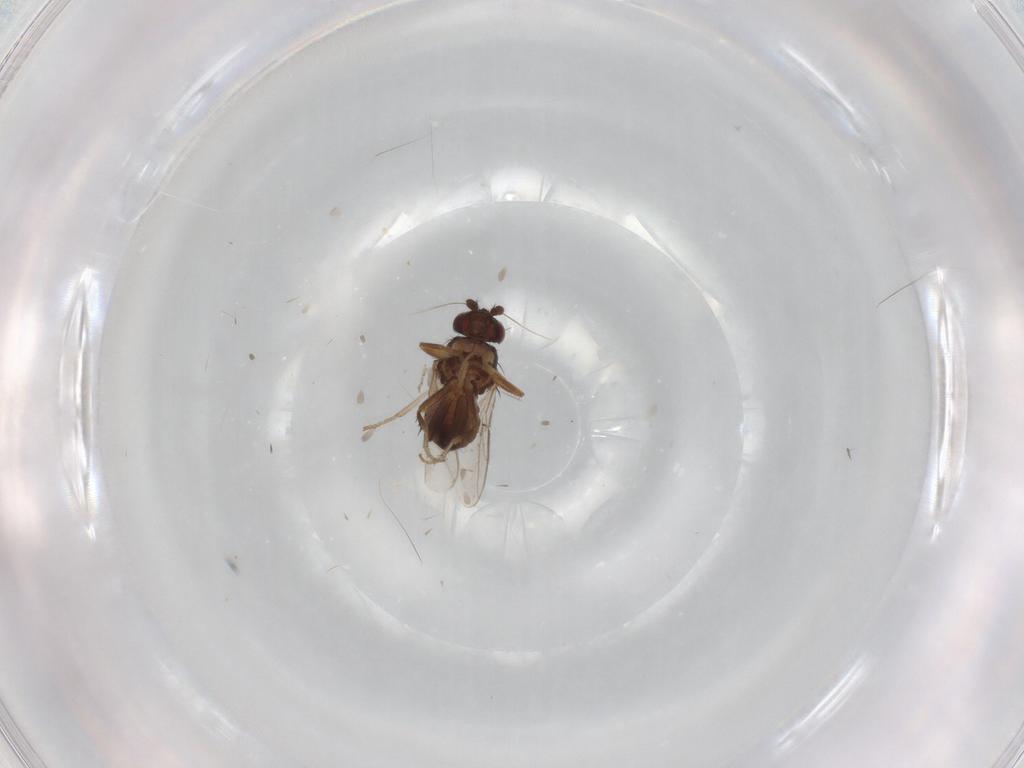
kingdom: Animalia
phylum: Arthropoda
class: Insecta
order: Diptera
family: Sphaeroceridae
